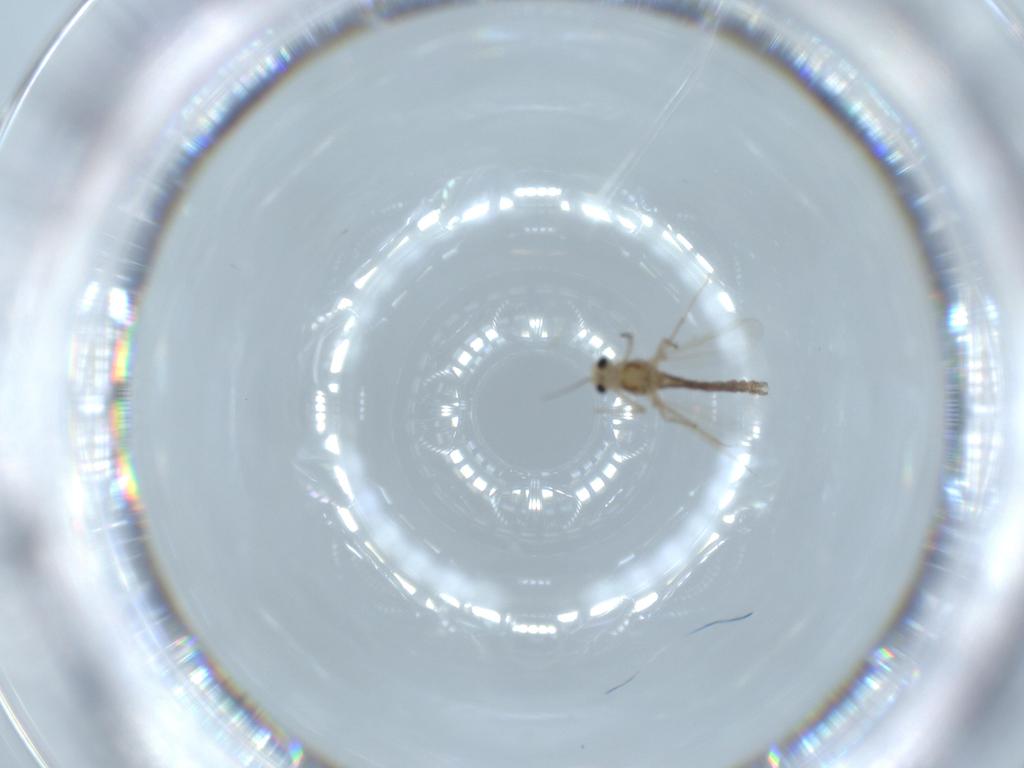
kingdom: Animalia
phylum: Arthropoda
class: Insecta
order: Diptera
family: Chironomidae
